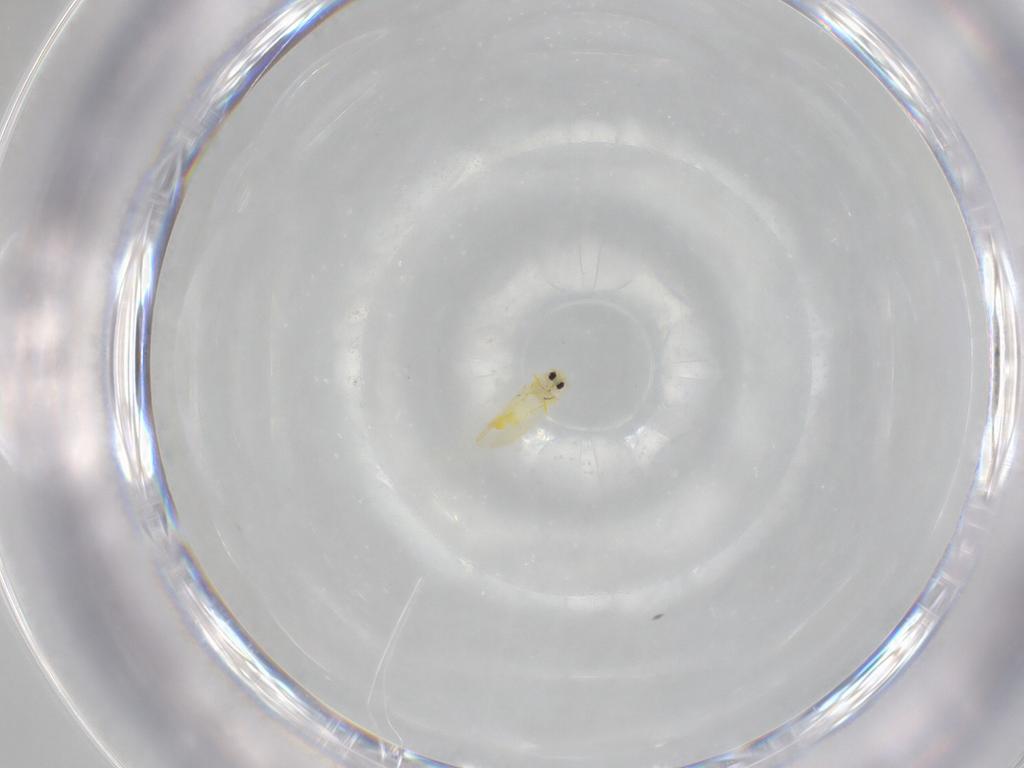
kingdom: Animalia
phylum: Arthropoda
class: Insecta
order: Hemiptera
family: Aleyrodidae
